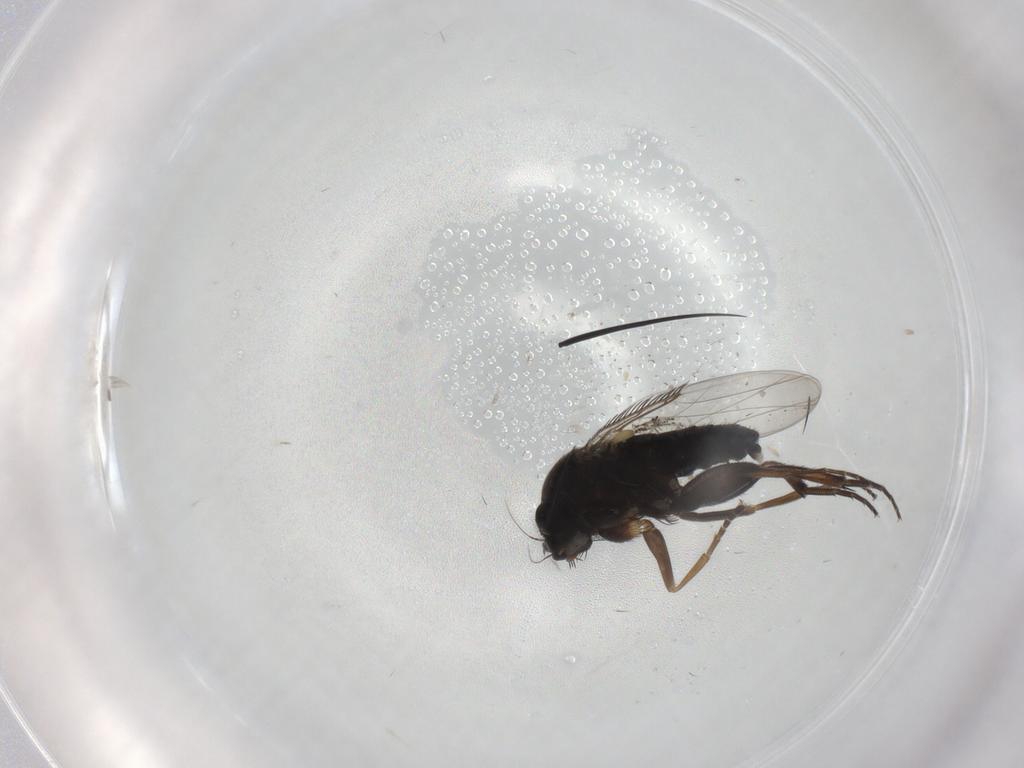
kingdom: Animalia
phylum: Arthropoda
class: Insecta
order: Diptera
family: Phoridae
